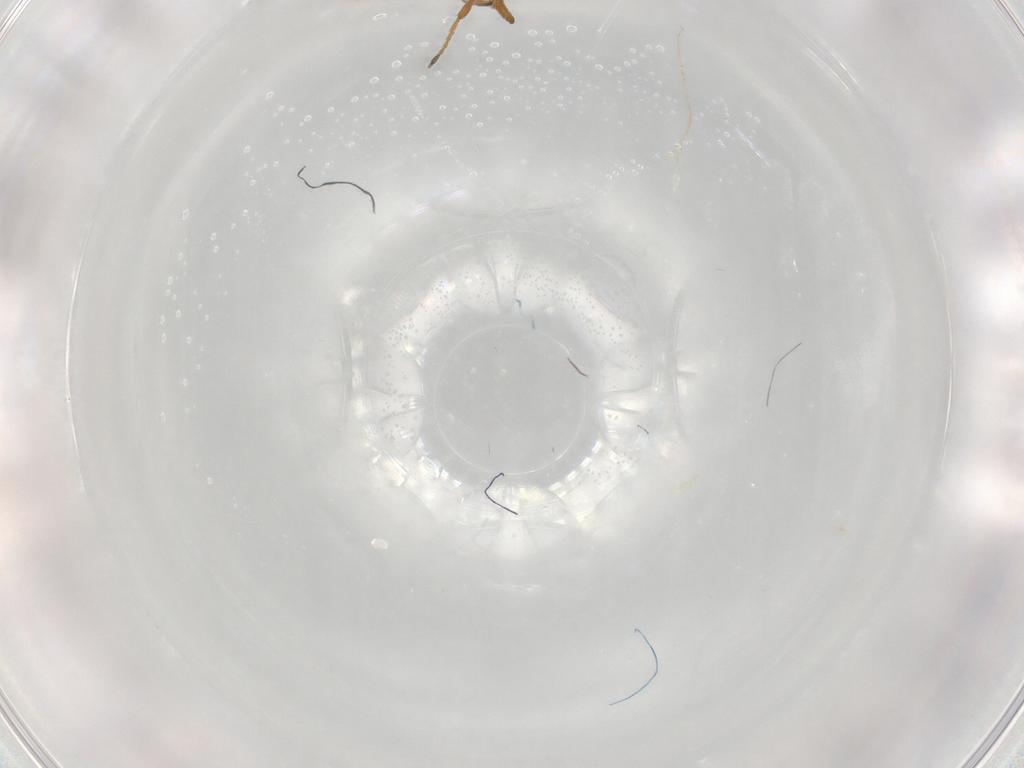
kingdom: Animalia
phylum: Arthropoda
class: Insecta
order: Hymenoptera
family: Diapriidae
